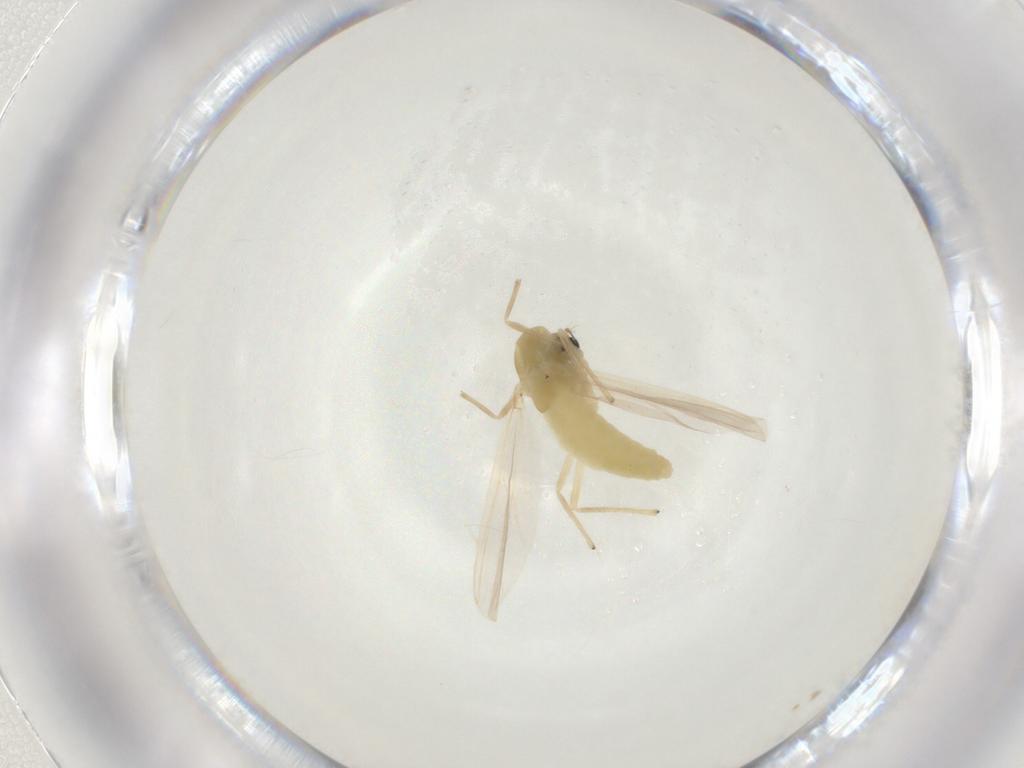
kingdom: Animalia
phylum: Arthropoda
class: Insecta
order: Diptera
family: Chironomidae
